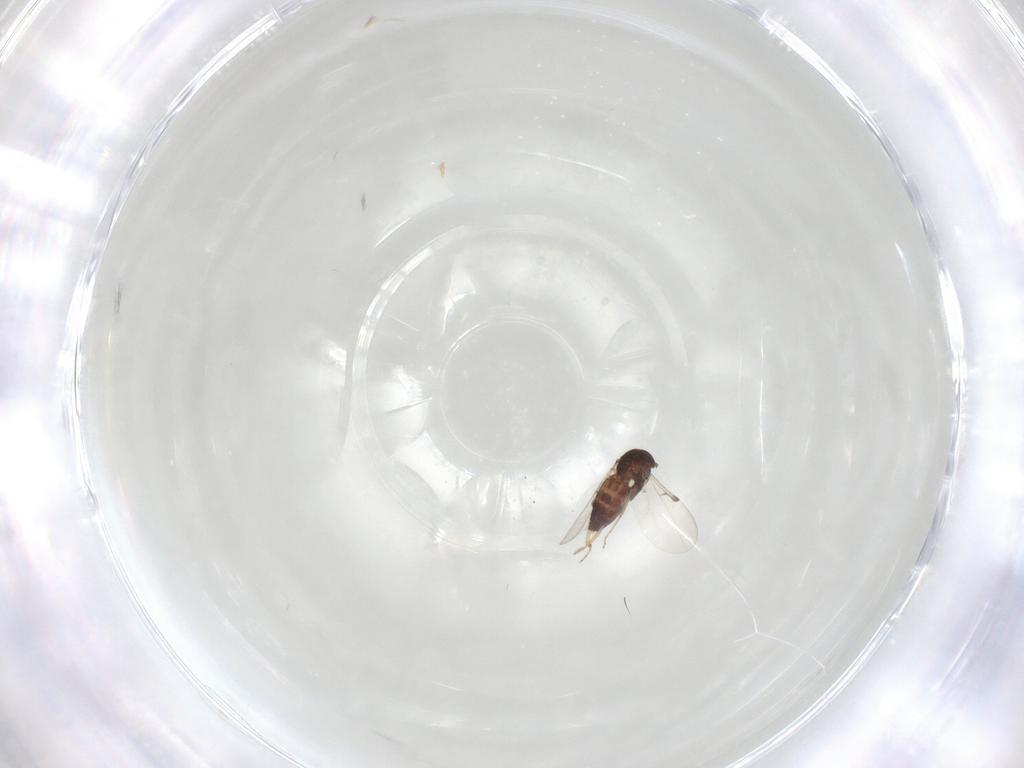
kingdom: Animalia
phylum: Arthropoda
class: Insecta
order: Diptera
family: Ceratopogonidae
